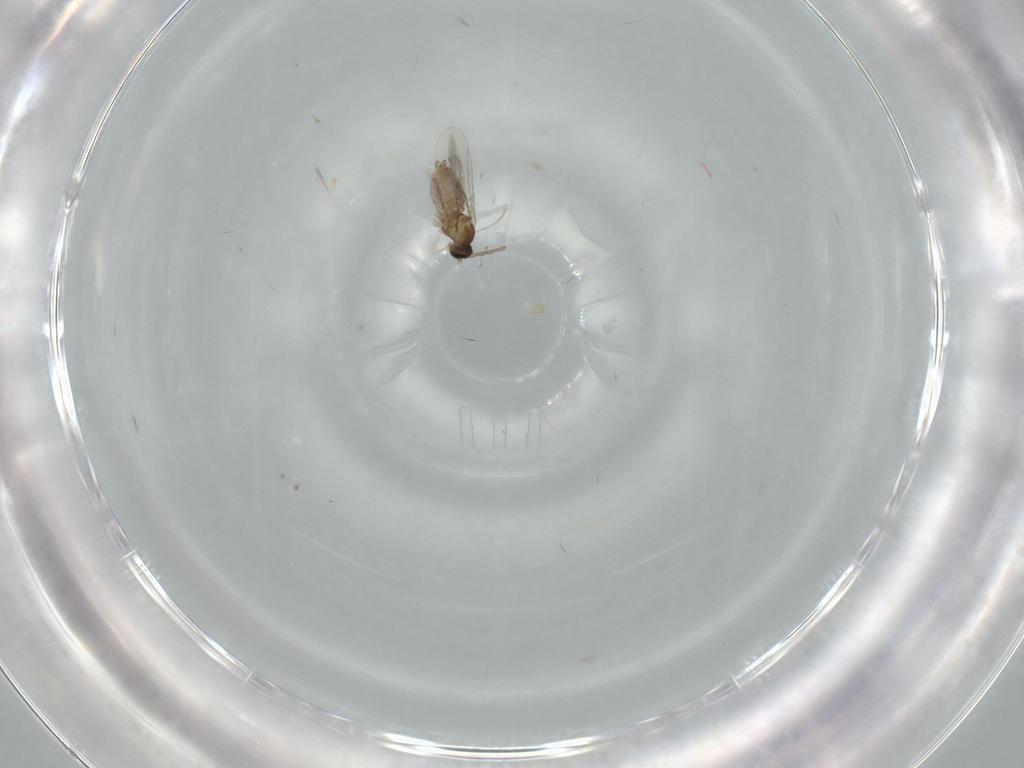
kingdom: Animalia
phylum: Arthropoda
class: Insecta
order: Diptera
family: Cecidomyiidae
